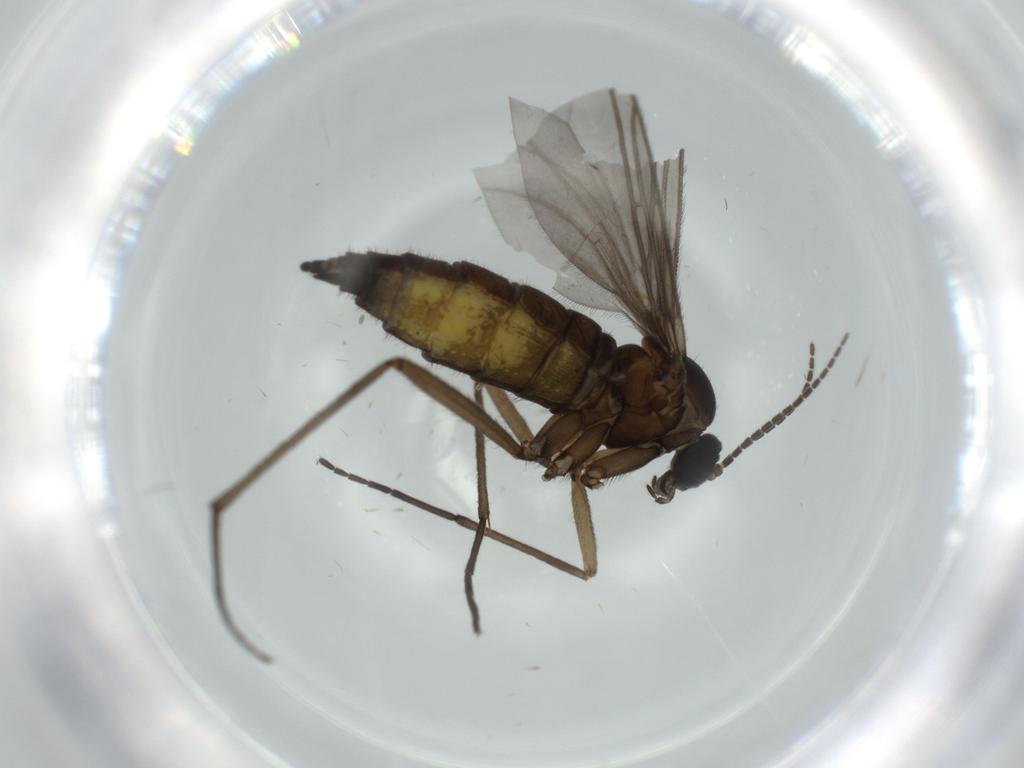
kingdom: Animalia
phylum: Arthropoda
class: Insecta
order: Diptera
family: Sciaridae
